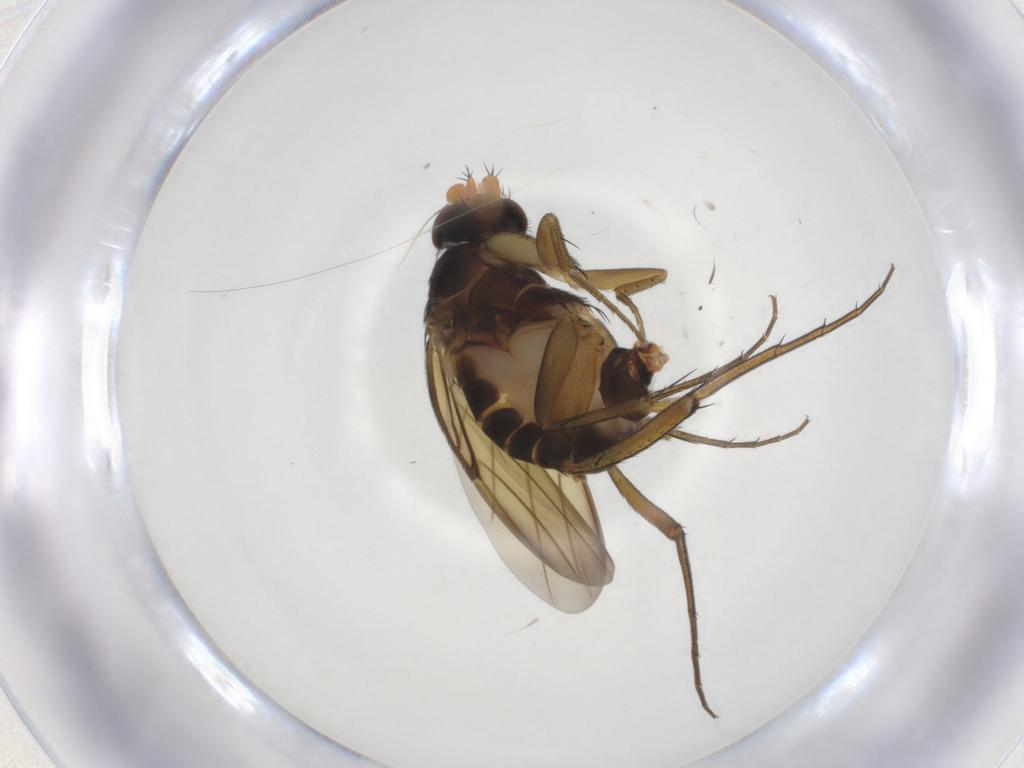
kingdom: Animalia
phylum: Arthropoda
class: Insecta
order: Diptera
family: Phoridae
